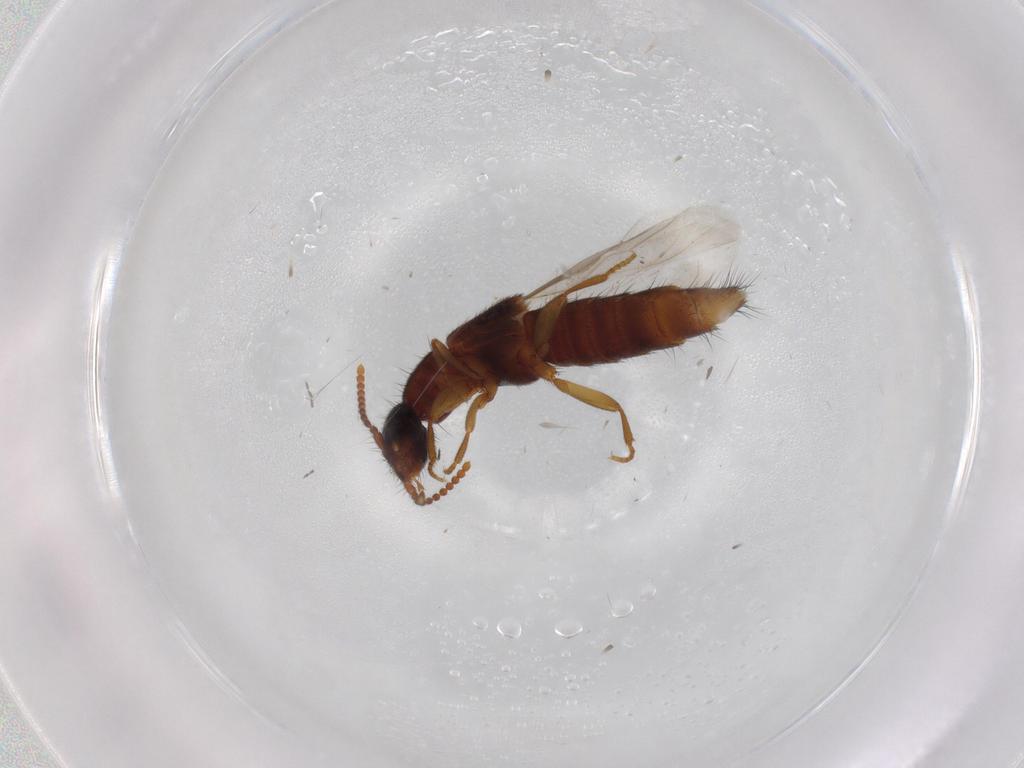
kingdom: Animalia
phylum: Arthropoda
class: Insecta
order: Coleoptera
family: Staphylinidae
